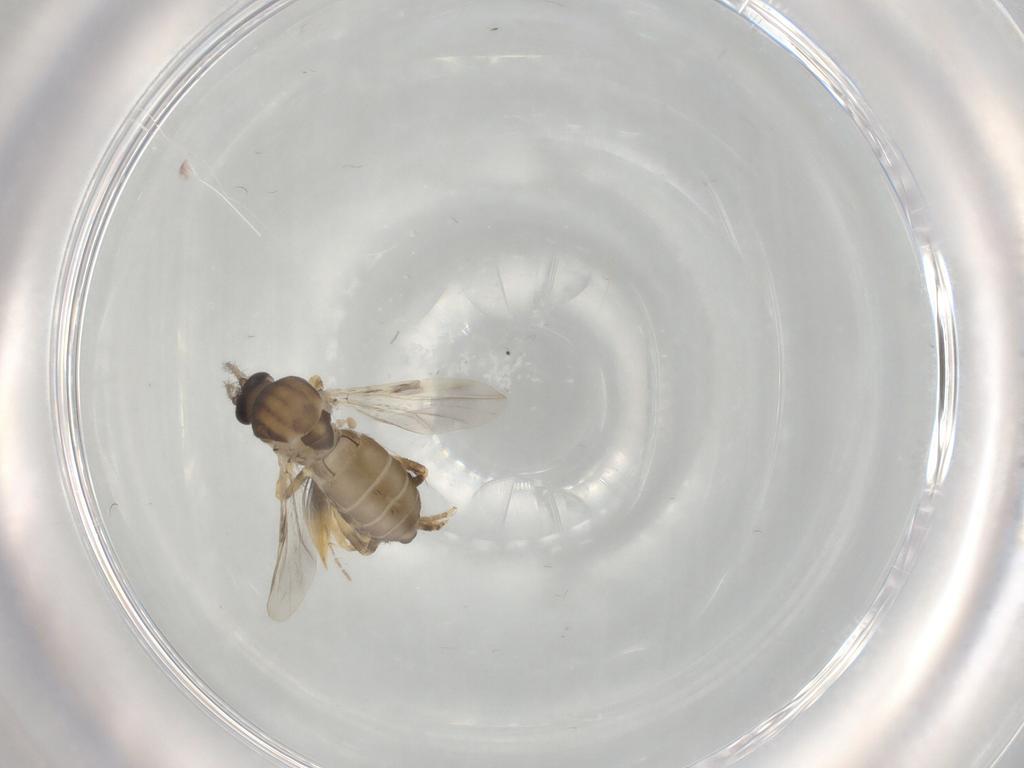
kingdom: Animalia
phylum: Arthropoda
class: Insecta
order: Diptera
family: Ceratopogonidae
